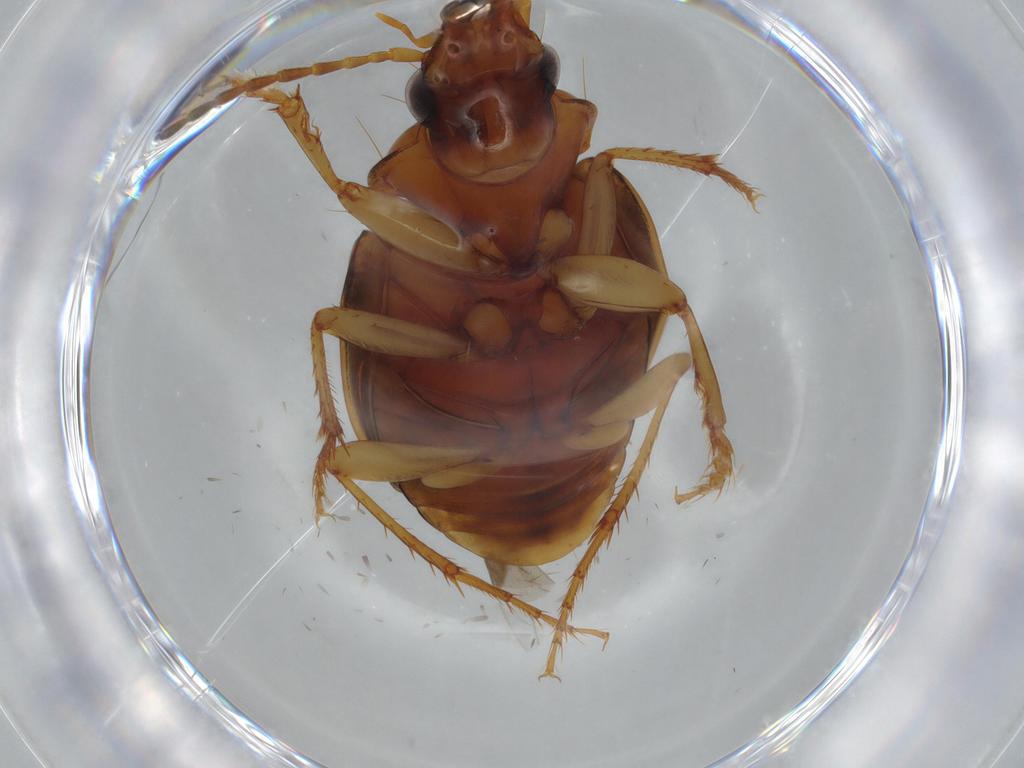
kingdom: Animalia
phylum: Arthropoda
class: Insecta
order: Coleoptera
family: Carabidae
